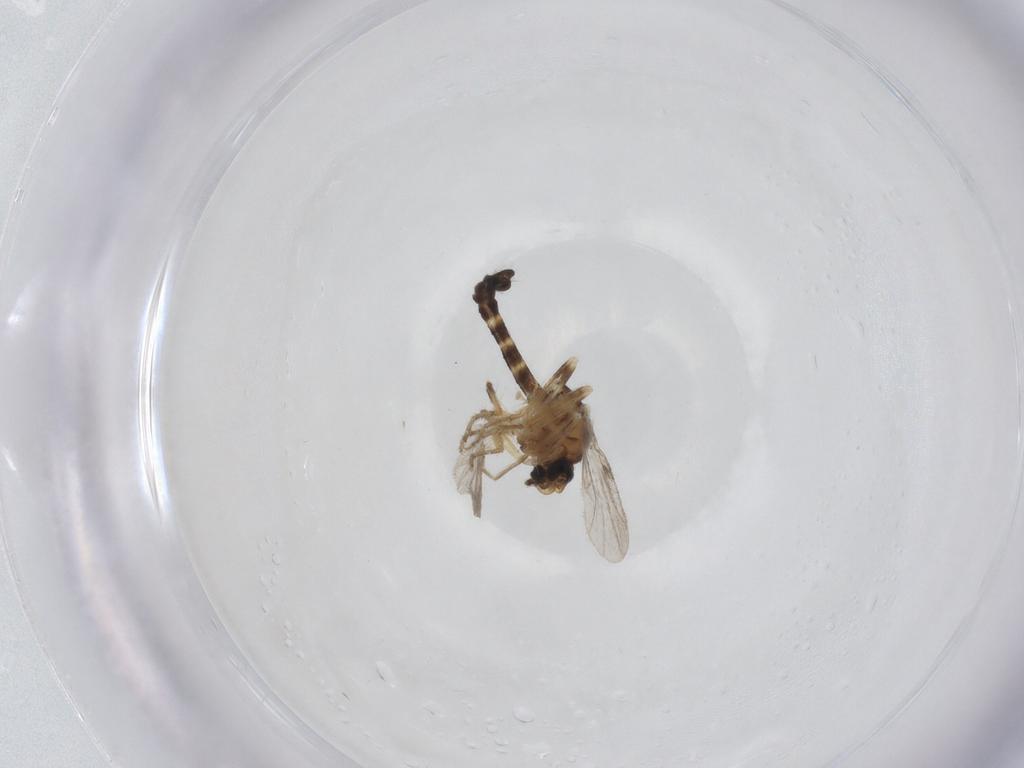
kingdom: Animalia
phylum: Arthropoda
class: Insecta
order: Diptera
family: Ceratopogonidae
